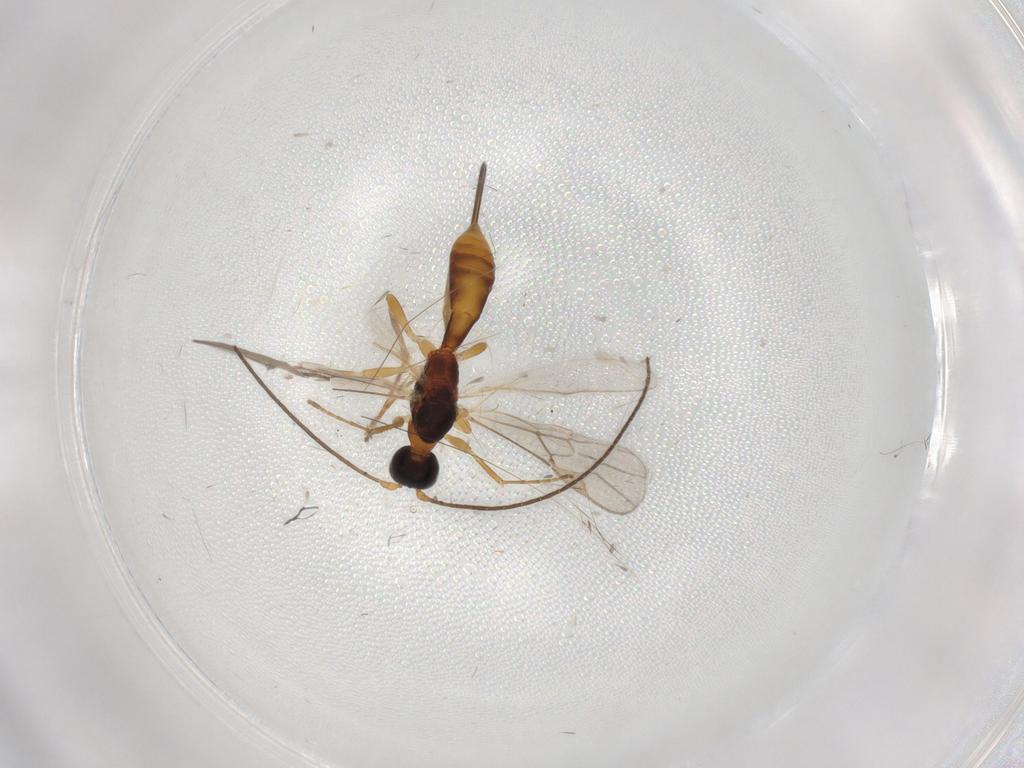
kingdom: Animalia
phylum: Arthropoda
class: Insecta
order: Hymenoptera
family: Braconidae
